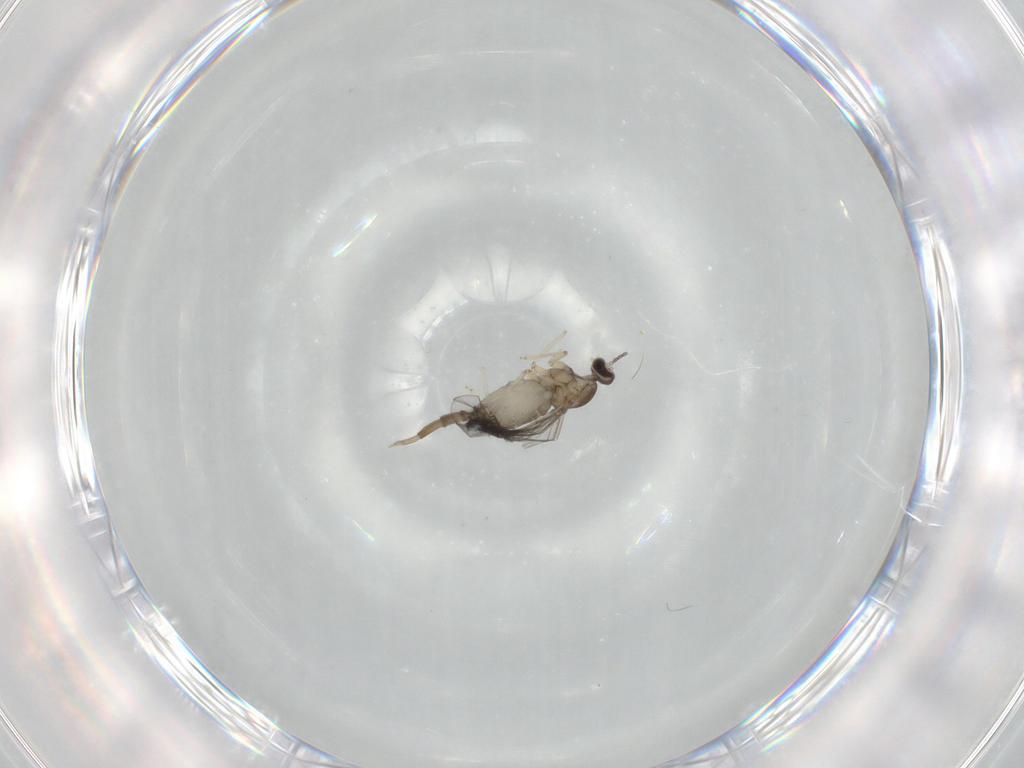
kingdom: Animalia
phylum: Arthropoda
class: Insecta
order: Diptera
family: Cecidomyiidae
